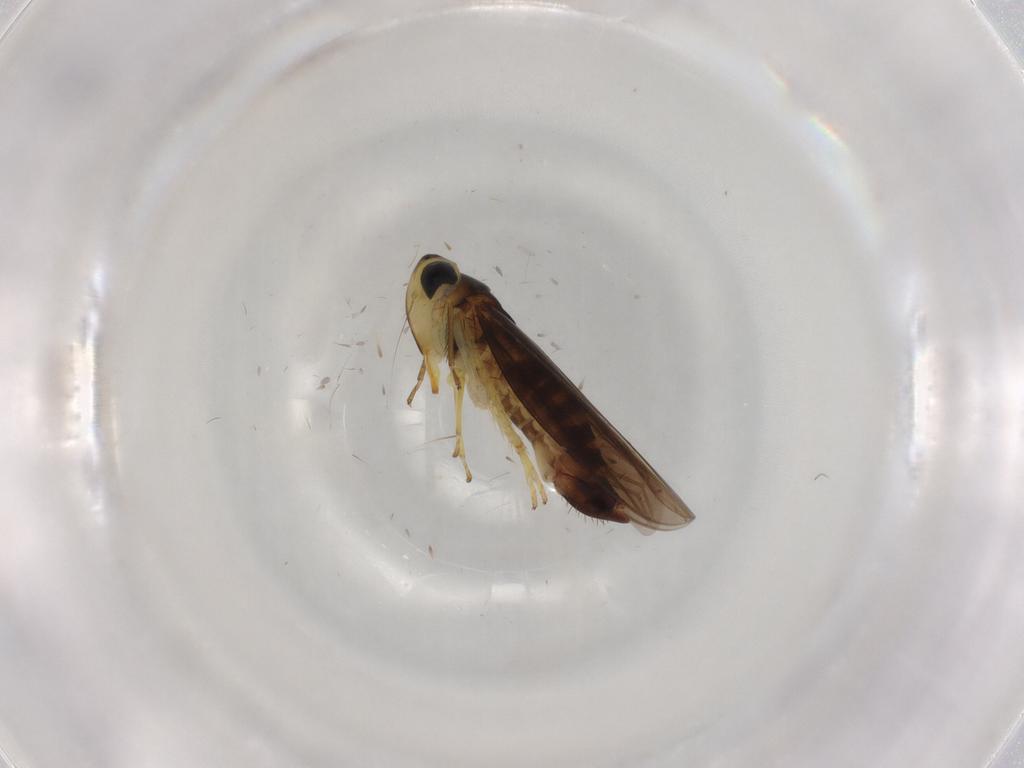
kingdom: Animalia
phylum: Arthropoda
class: Insecta
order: Hemiptera
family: Cicadellidae
